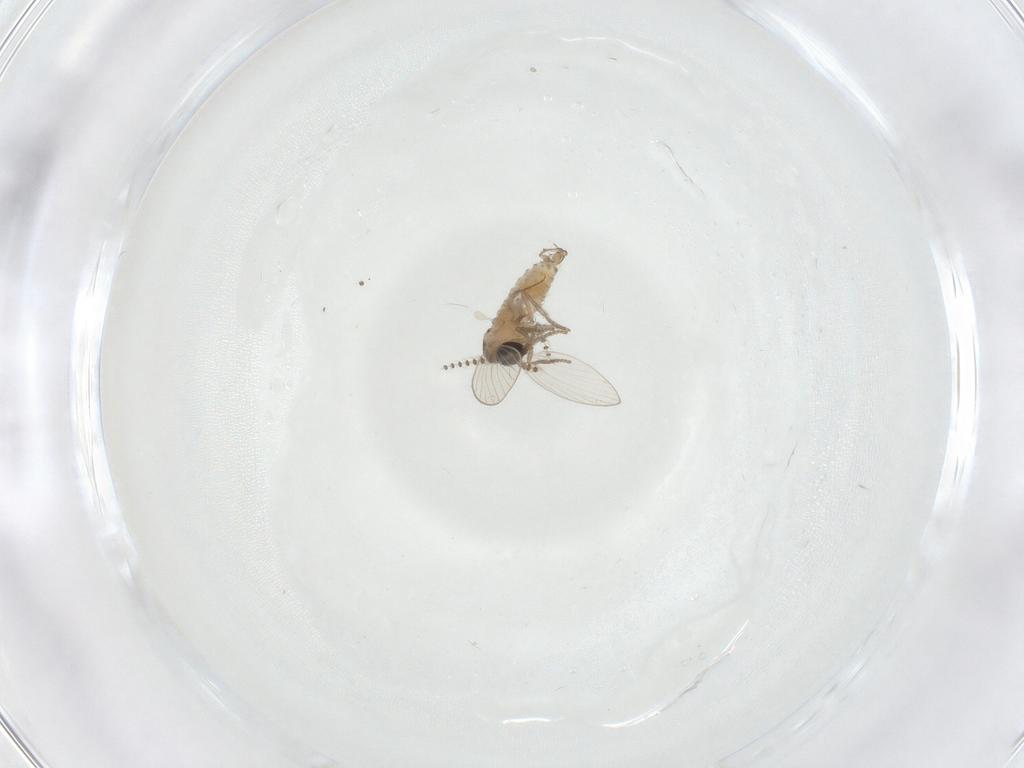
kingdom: Animalia
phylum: Arthropoda
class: Insecta
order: Diptera
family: Psychodidae
